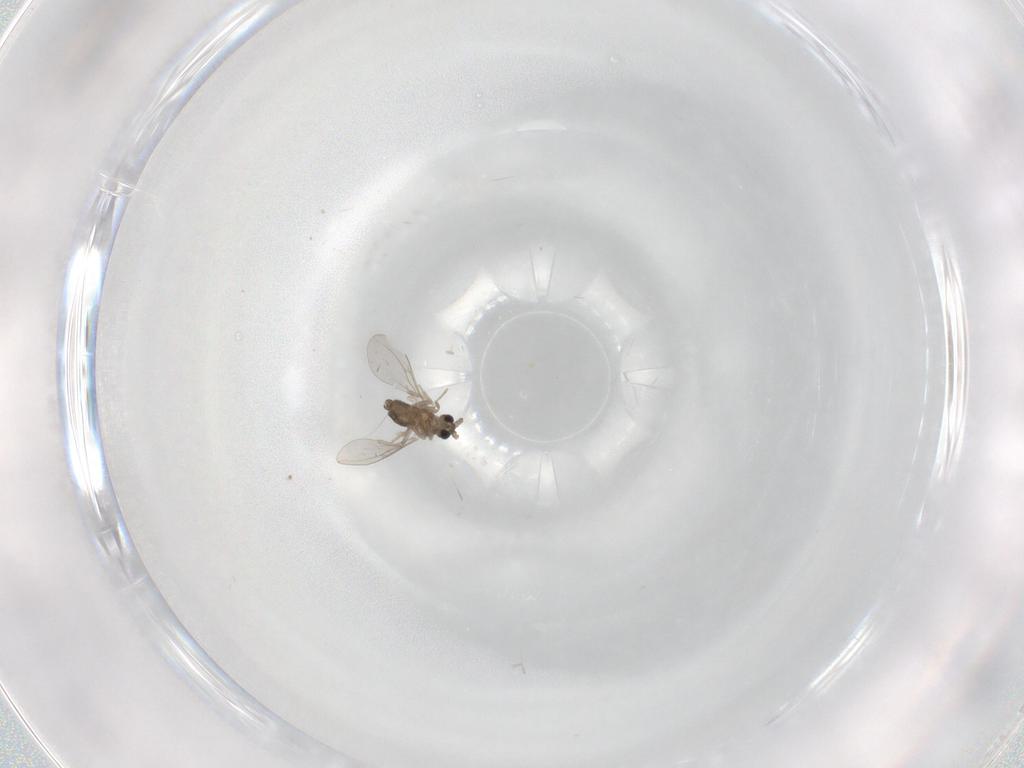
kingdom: Animalia
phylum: Arthropoda
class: Insecta
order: Diptera
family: Cecidomyiidae
